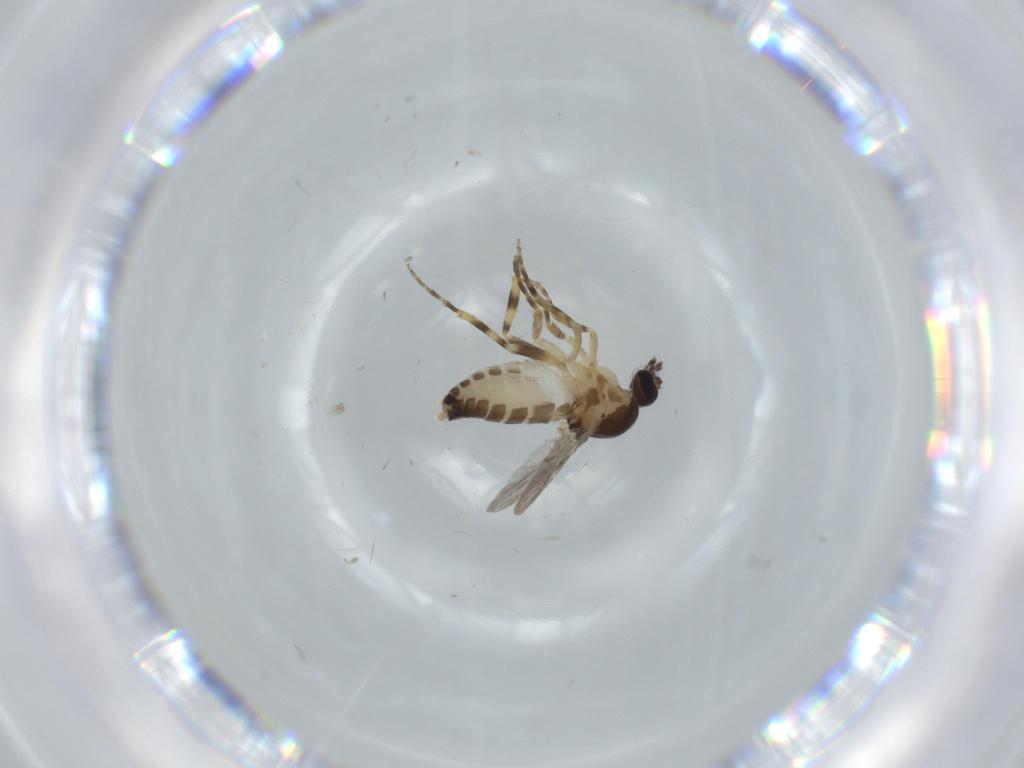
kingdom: Animalia
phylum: Arthropoda
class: Insecta
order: Diptera
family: Ceratopogonidae
